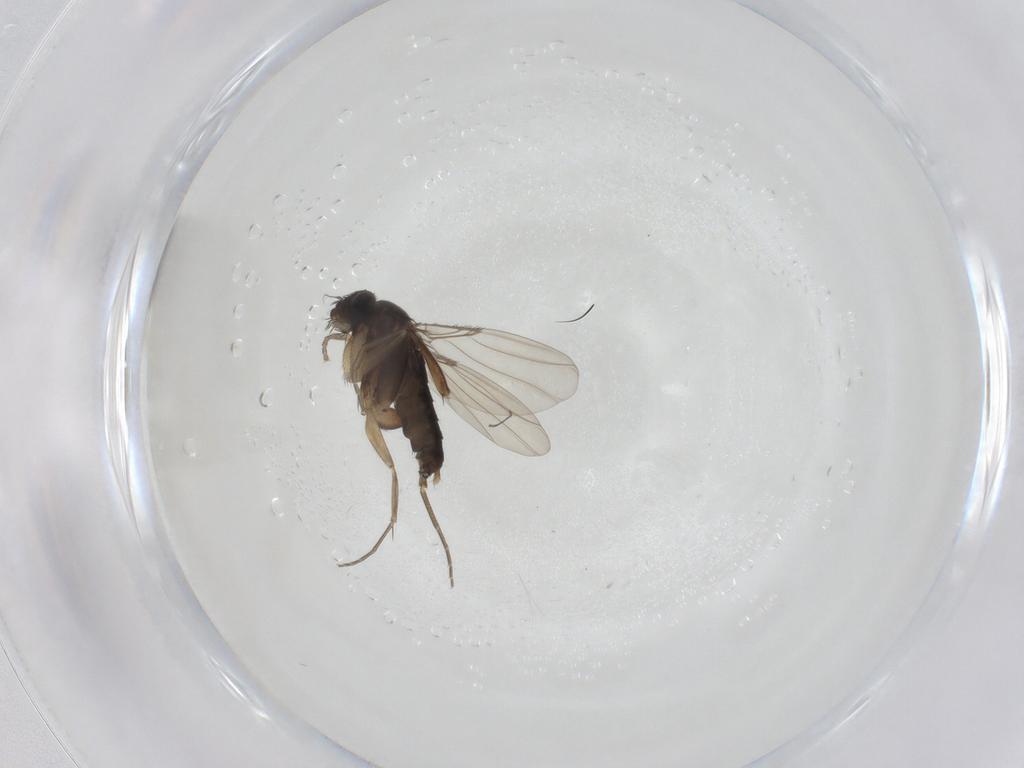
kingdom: Animalia
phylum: Arthropoda
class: Insecta
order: Diptera
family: Phoridae
